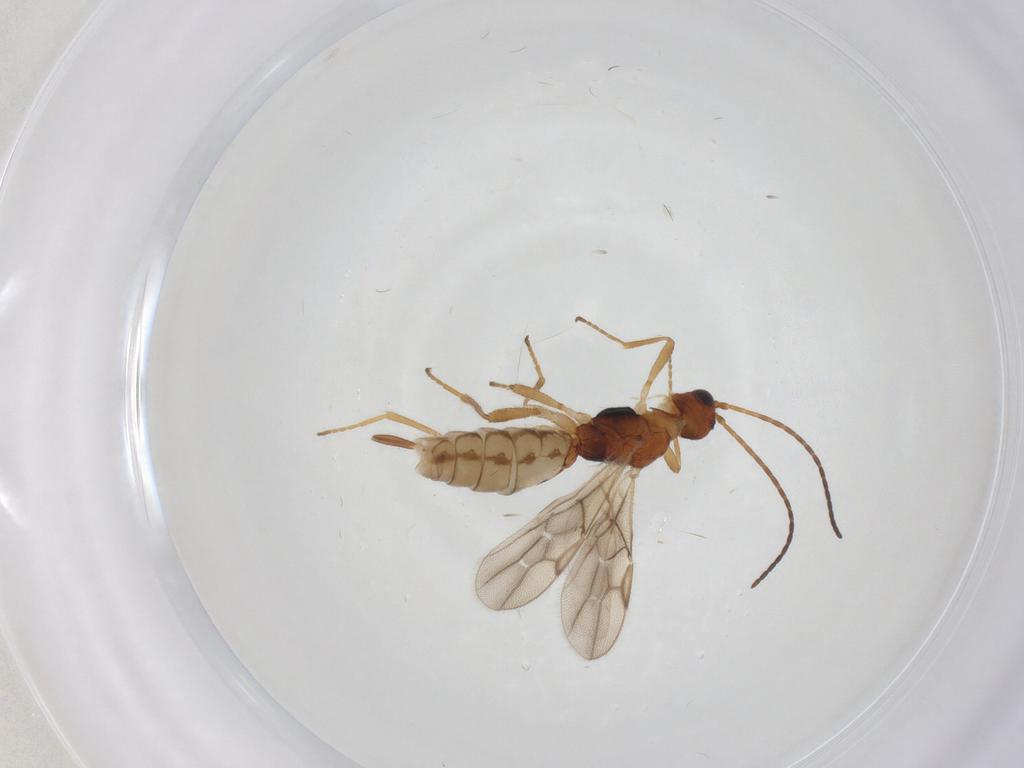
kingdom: Animalia
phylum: Arthropoda
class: Insecta
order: Hymenoptera
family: Braconidae
